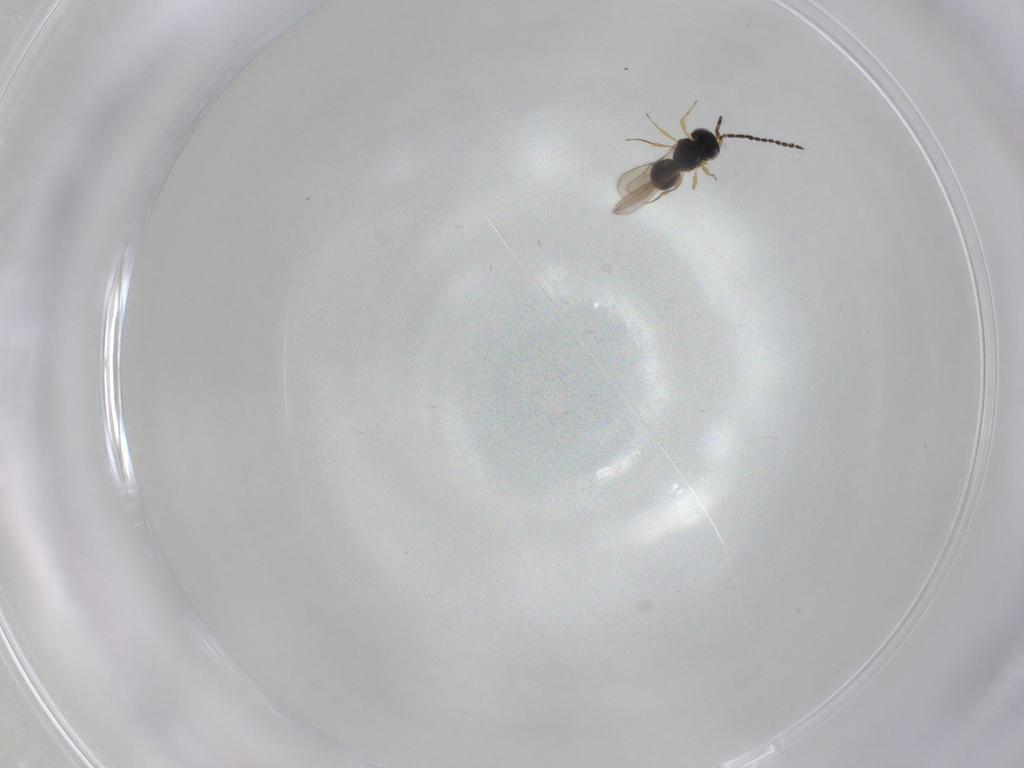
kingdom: Animalia
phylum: Arthropoda
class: Insecta
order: Hymenoptera
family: Scelionidae
